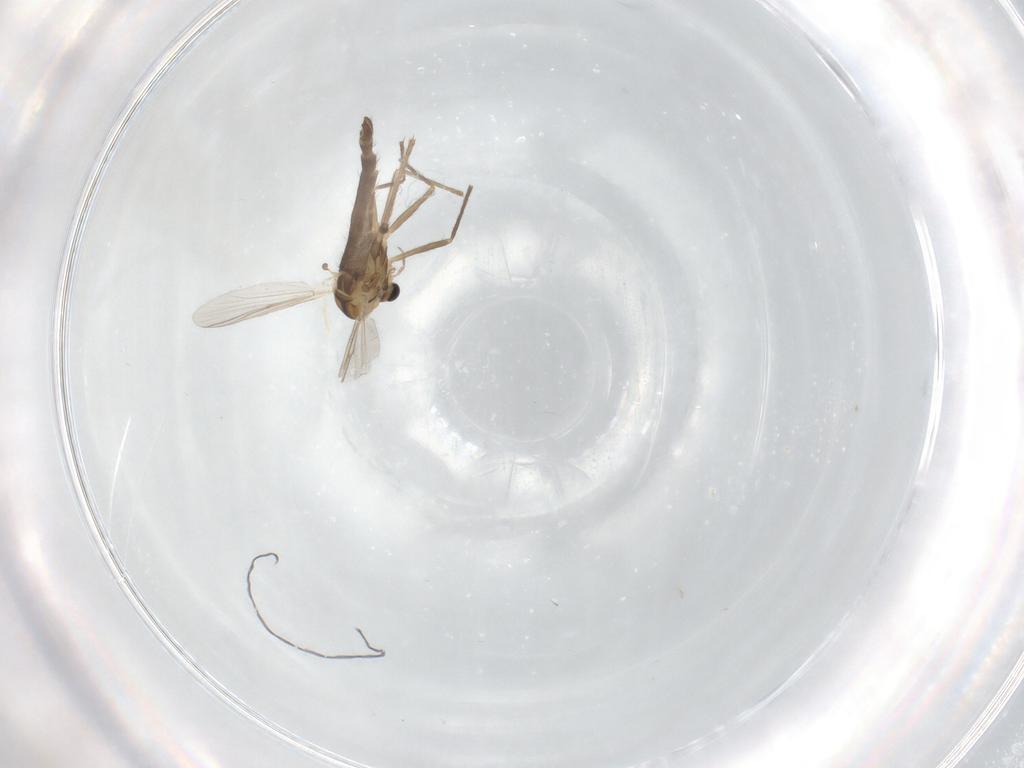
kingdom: Animalia
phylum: Arthropoda
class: Insecta
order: Diptera
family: Chironomidae
